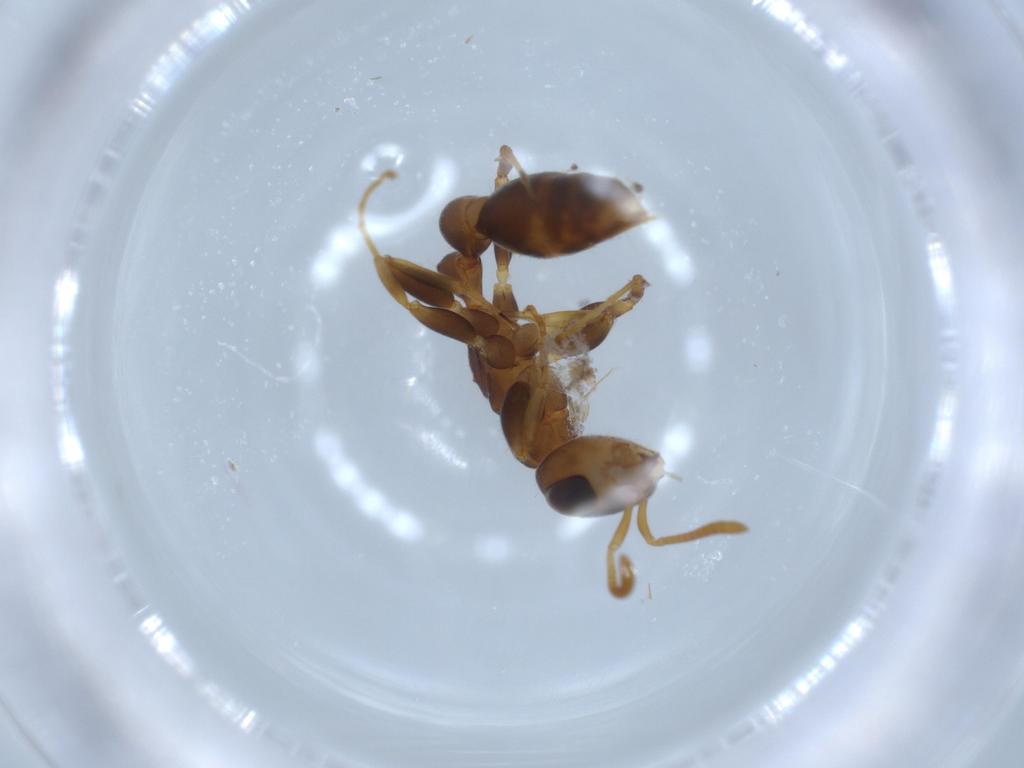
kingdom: Animalia
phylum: Arthropoda
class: Insecta
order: Hymenoptera
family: Formicidae
